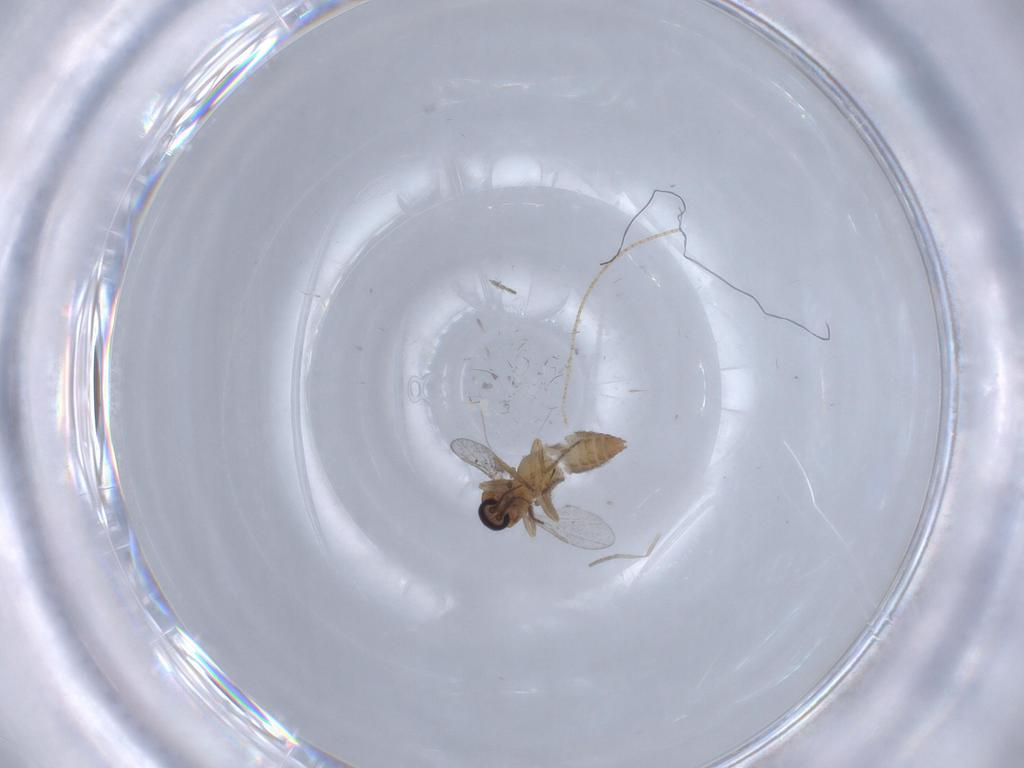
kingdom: Animalia
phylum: Arthropoda
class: Insecta
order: Diptera
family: Ceratopogonidae
